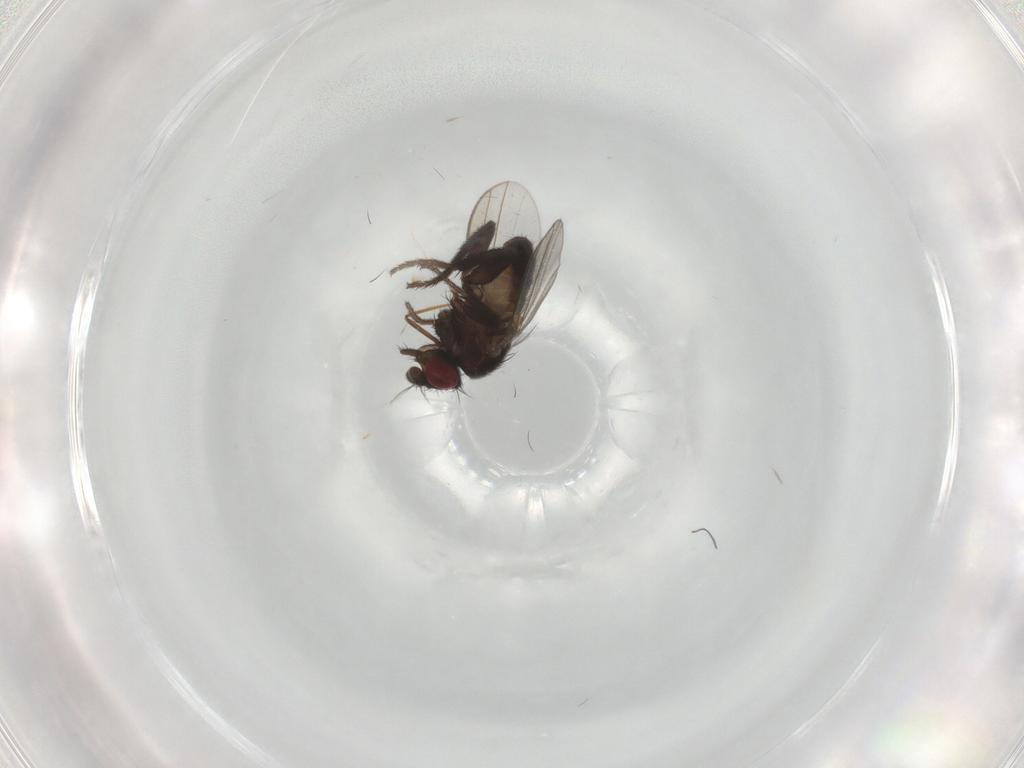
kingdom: Animalia
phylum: Arthropoda
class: Insecta
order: Diptera
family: Milichiidae
